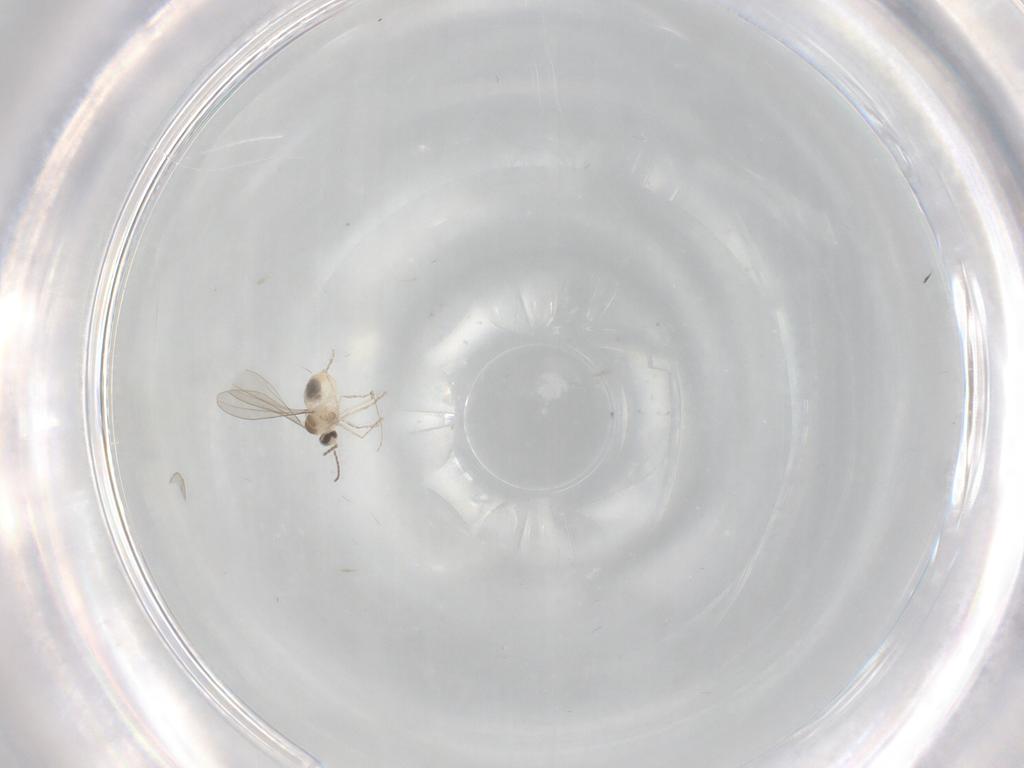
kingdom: Animalia
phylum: Arthropoda
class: Insecta
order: Diptera
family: Cecidomyiidae
